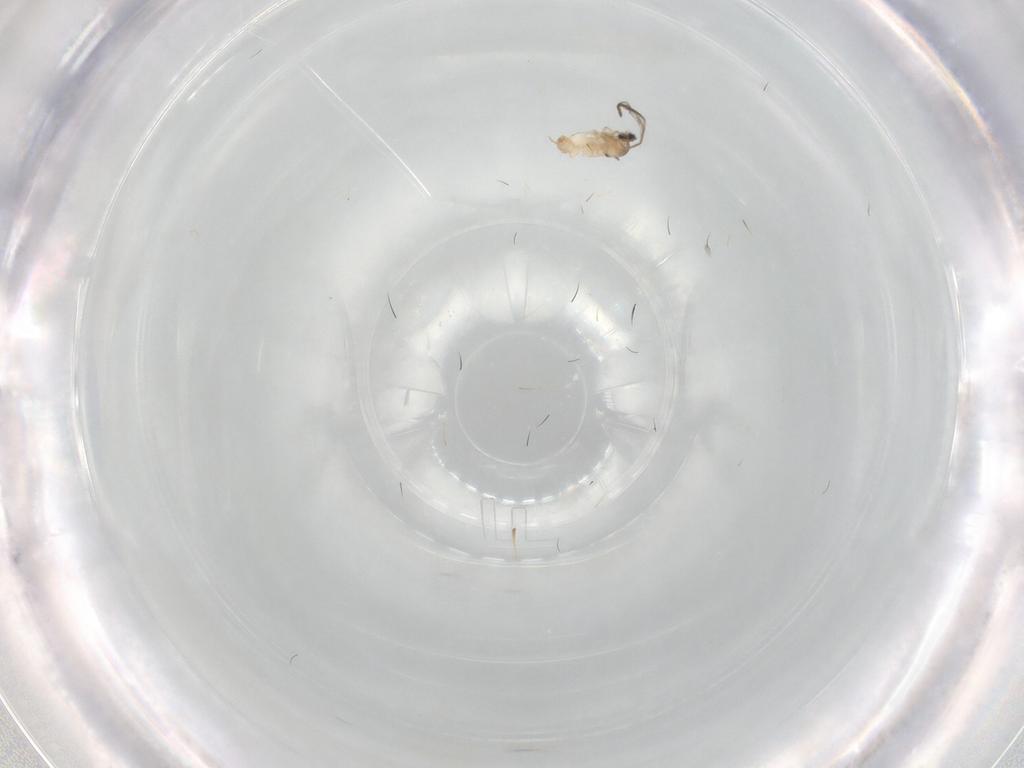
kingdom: Animalia
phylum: Arthropoda
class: Insecta
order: Diptera
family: Cecidomyiidae
